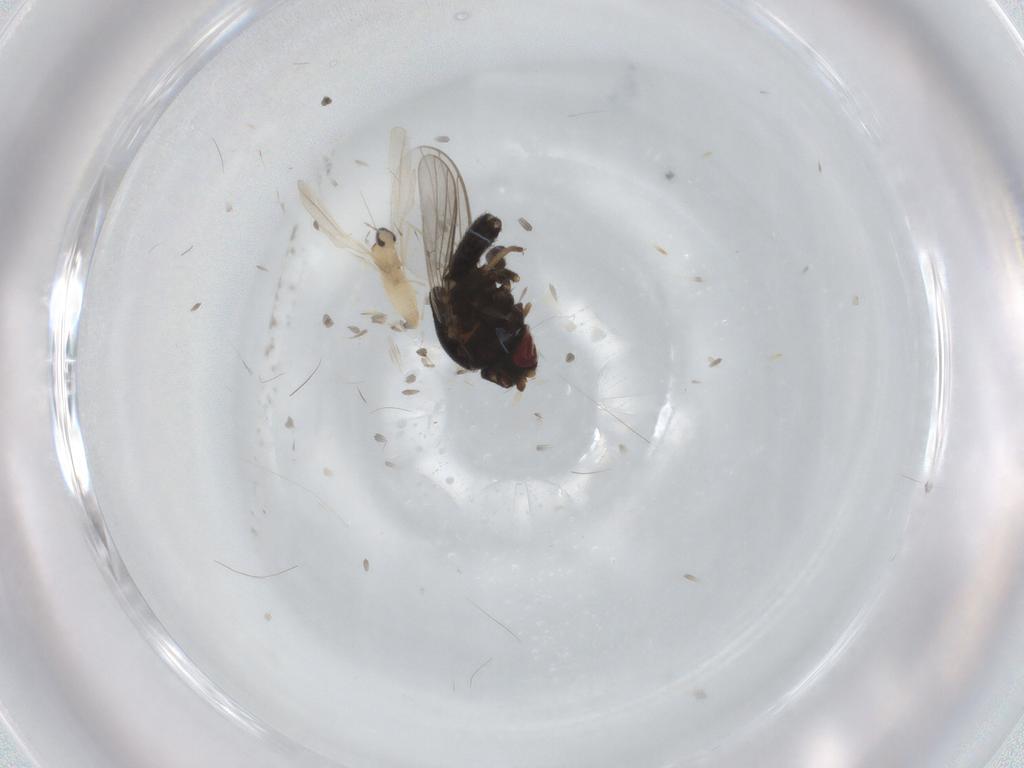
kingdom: Animalia
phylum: Arthropoda
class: Insecta
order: Diptera
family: Chloropidae
